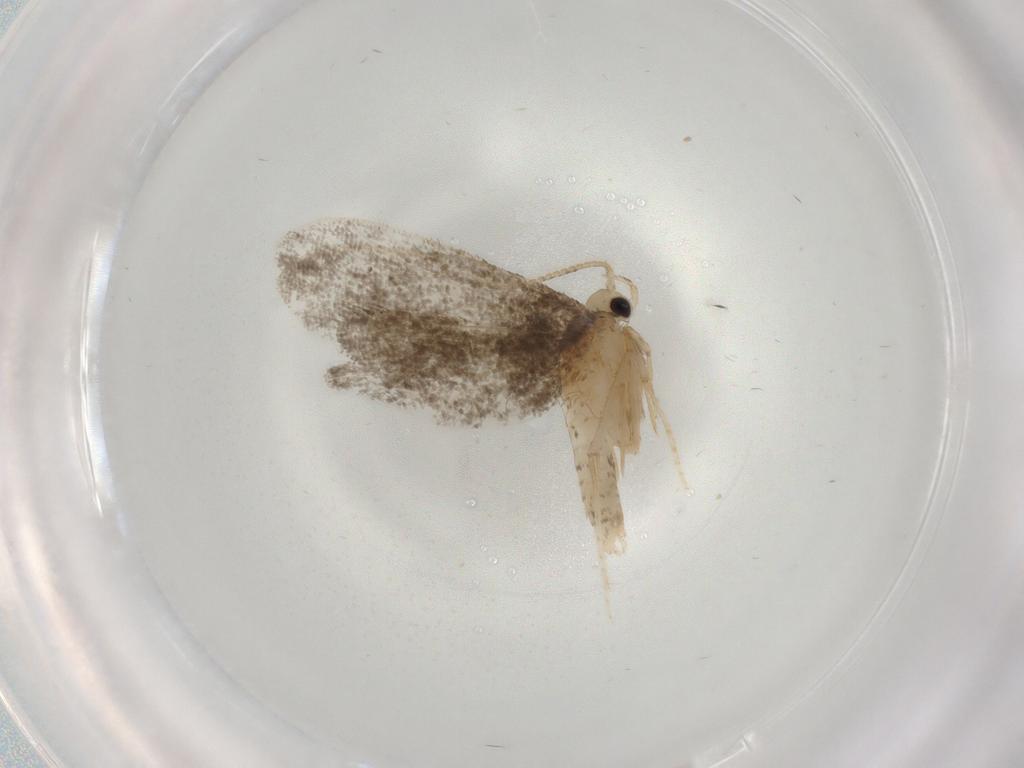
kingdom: Animalia
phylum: Arthropoda
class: Insecta
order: Lepidoptera
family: Psychidae
